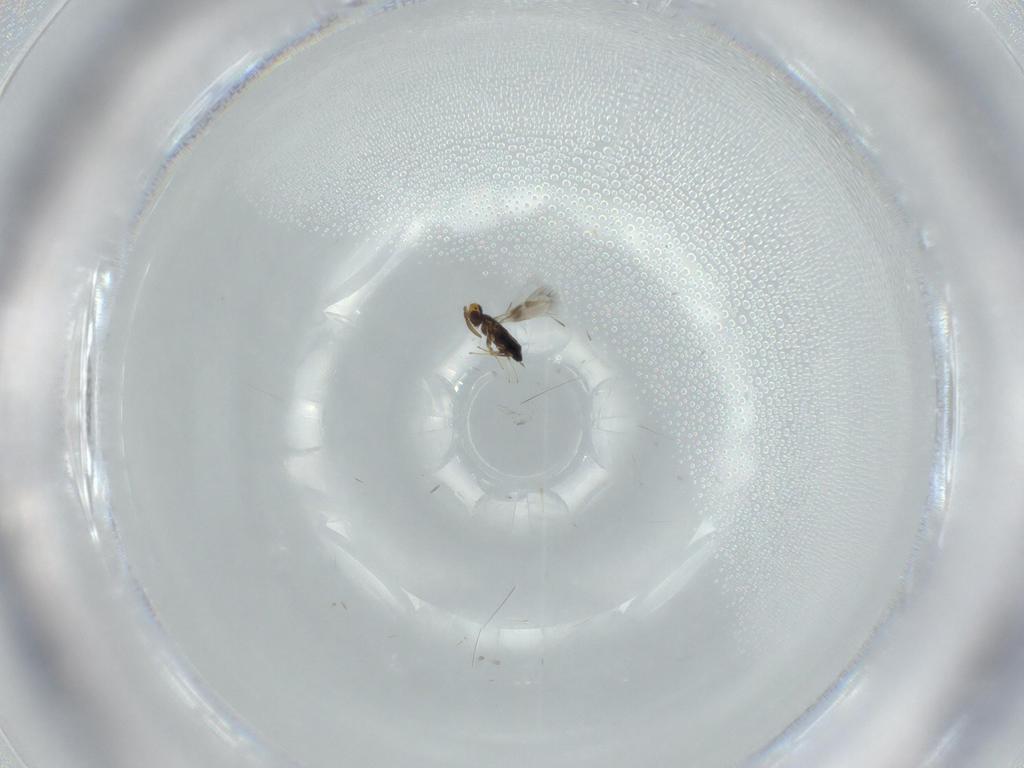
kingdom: Animalia
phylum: Arthropoda
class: Insecta
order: Hymenoptera
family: Signiphoridae
